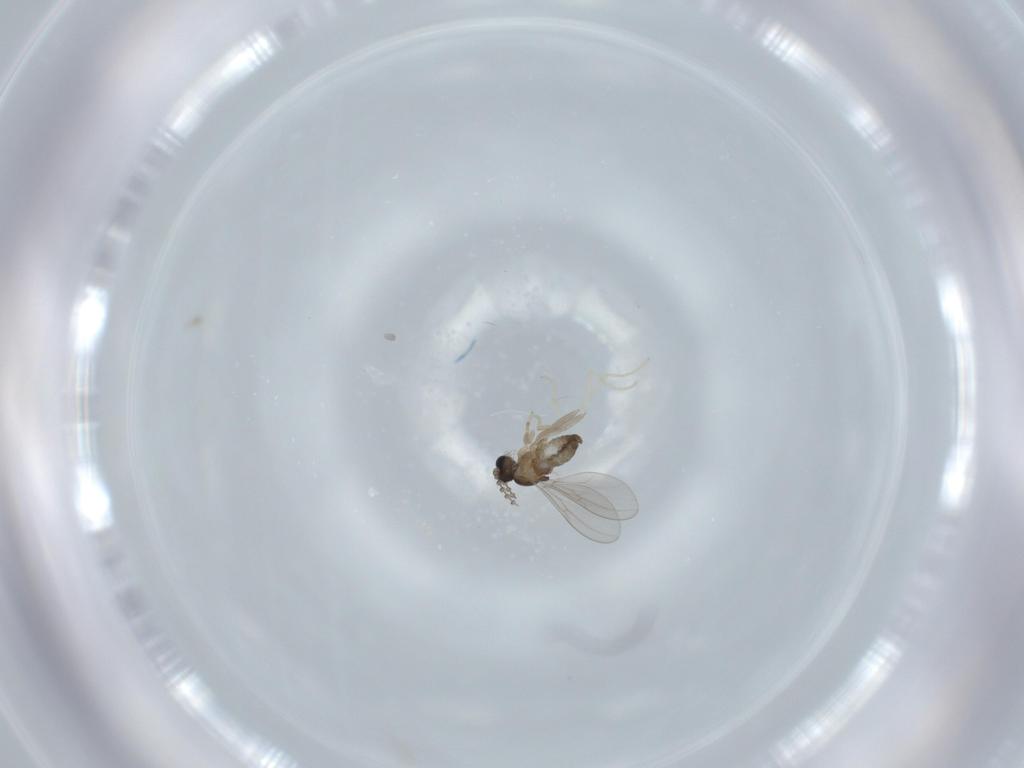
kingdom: Animalia
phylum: Arthropoda
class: Insecta
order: Diptera
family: Cecidomyiidae
